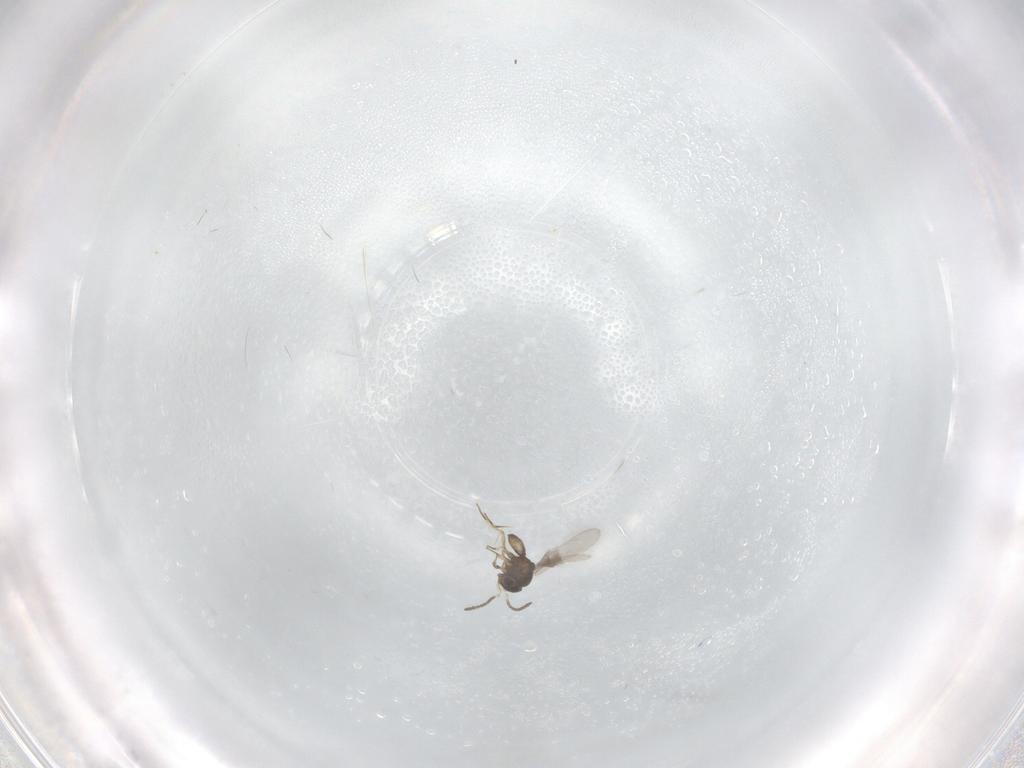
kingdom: Animalia
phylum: Arthropoda
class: Insecta
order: Hymenoptera
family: Scelionidae
